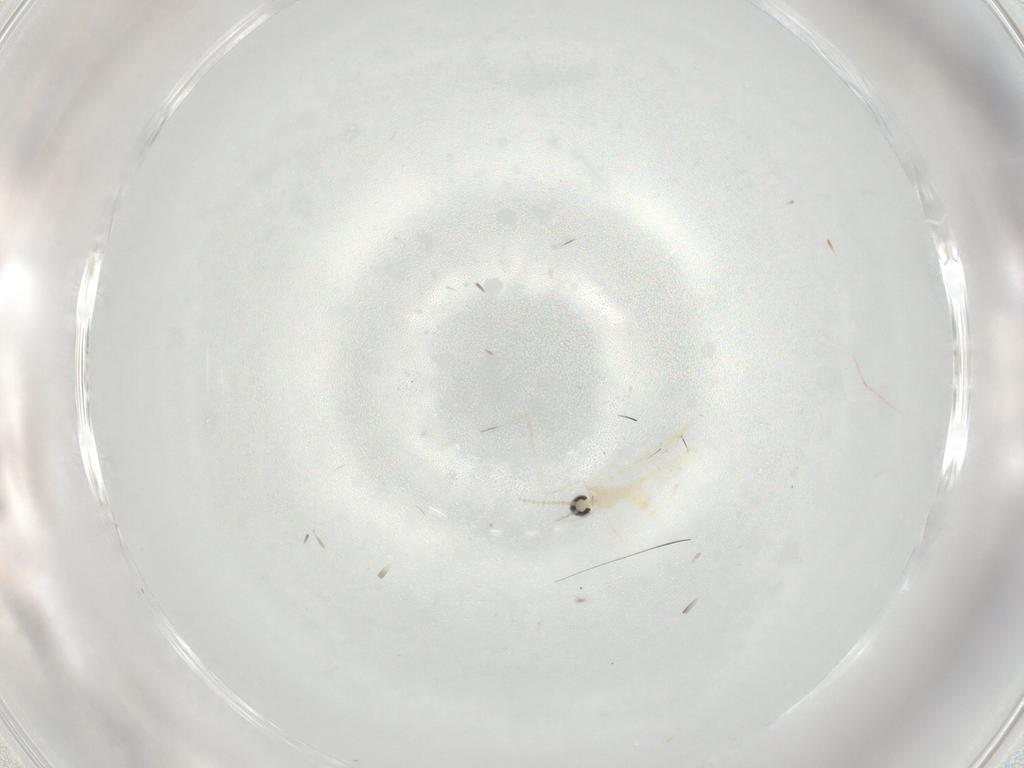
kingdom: Animalia
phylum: Arthropoda
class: Insecta
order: Diptera
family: Cecidomyiidae
